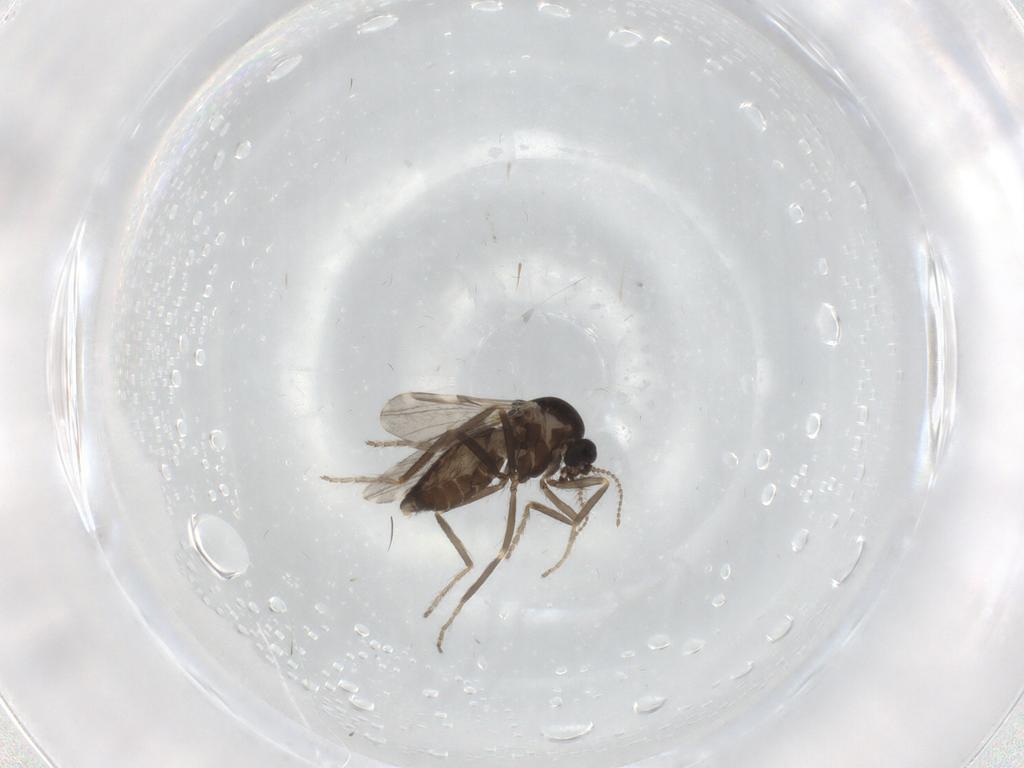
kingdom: Animalia
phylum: Arthropoda
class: Insecta
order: Diptera
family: Ceratopogonidae
